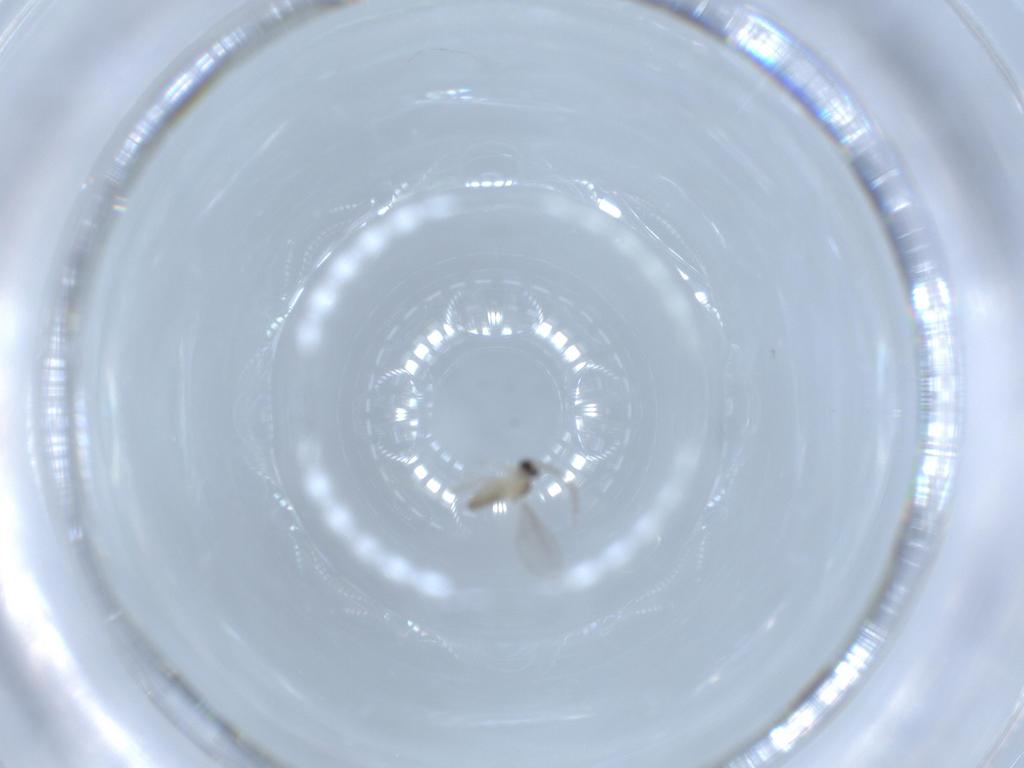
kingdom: Animalia
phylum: Arthropoda
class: Insecta
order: Diptera
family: Cecidomyiidae
